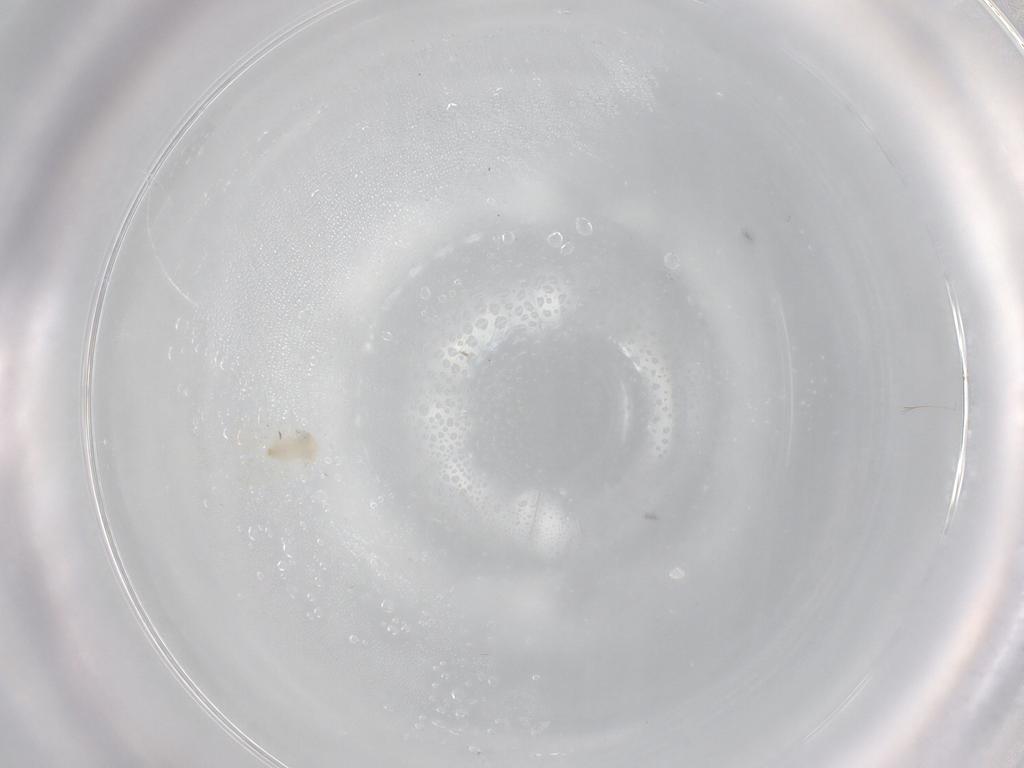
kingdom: Animalia
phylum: Arthropoda
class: Insecta
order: Hemiptera
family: Aleyrodidae
